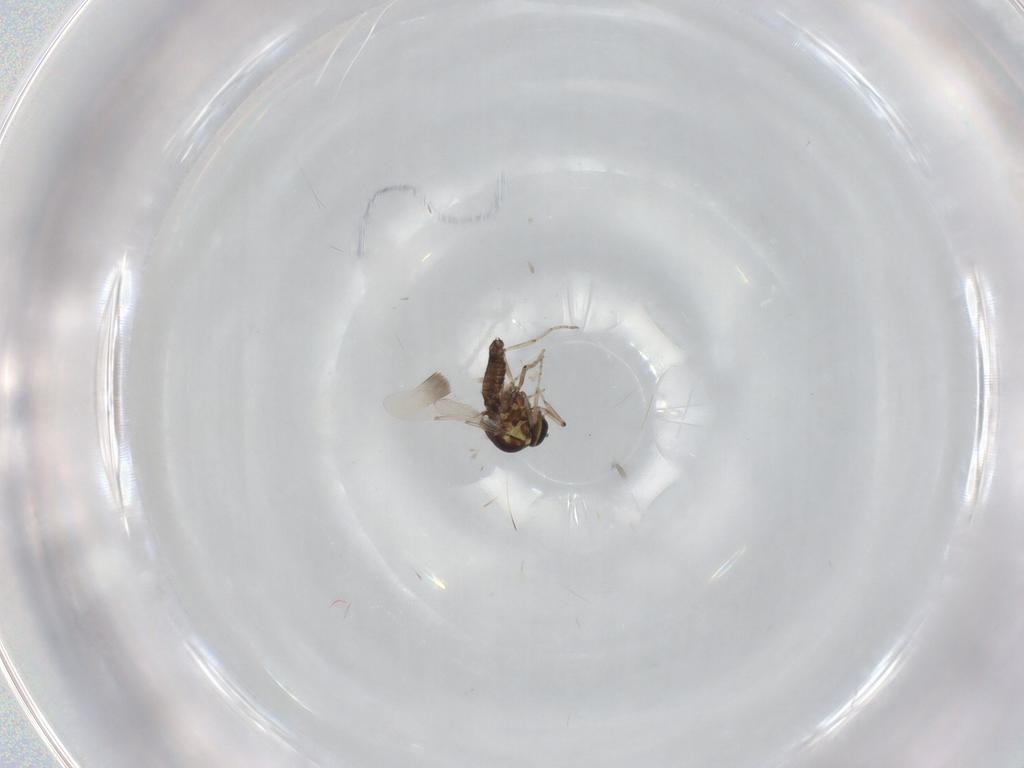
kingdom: Animalia
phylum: Arthropoda
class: Insecta
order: Diptera
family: Ceratopogonidae
